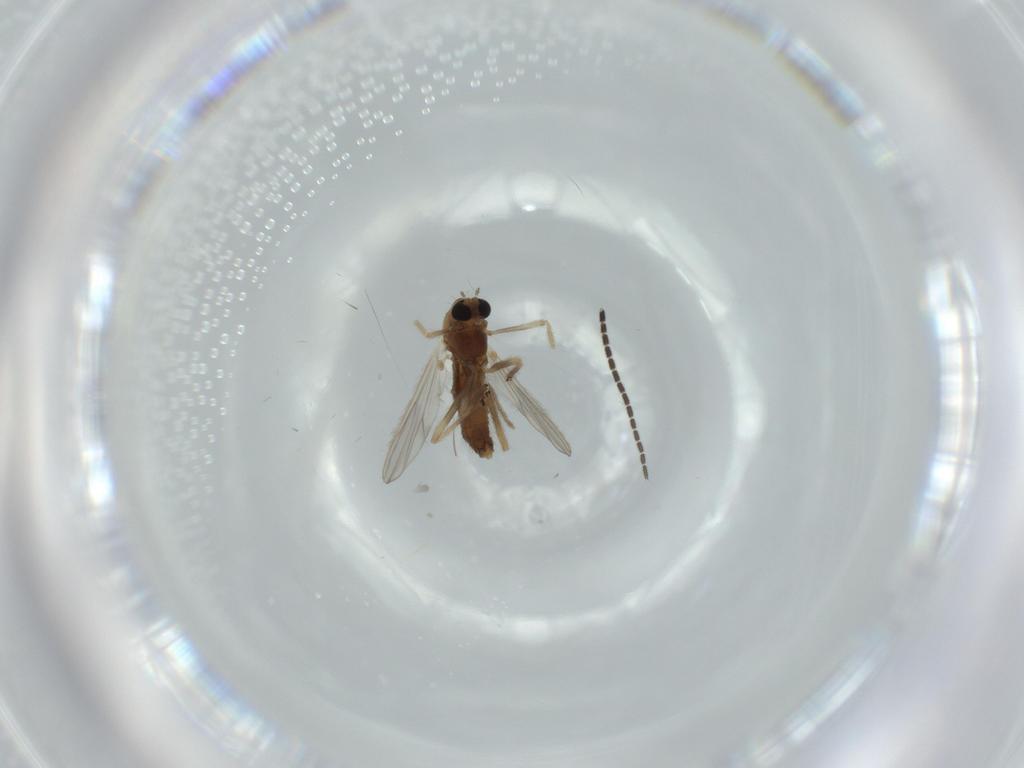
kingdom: Animalia
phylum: Arthropoda
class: Insecta
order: Diptera
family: Chironomidae
